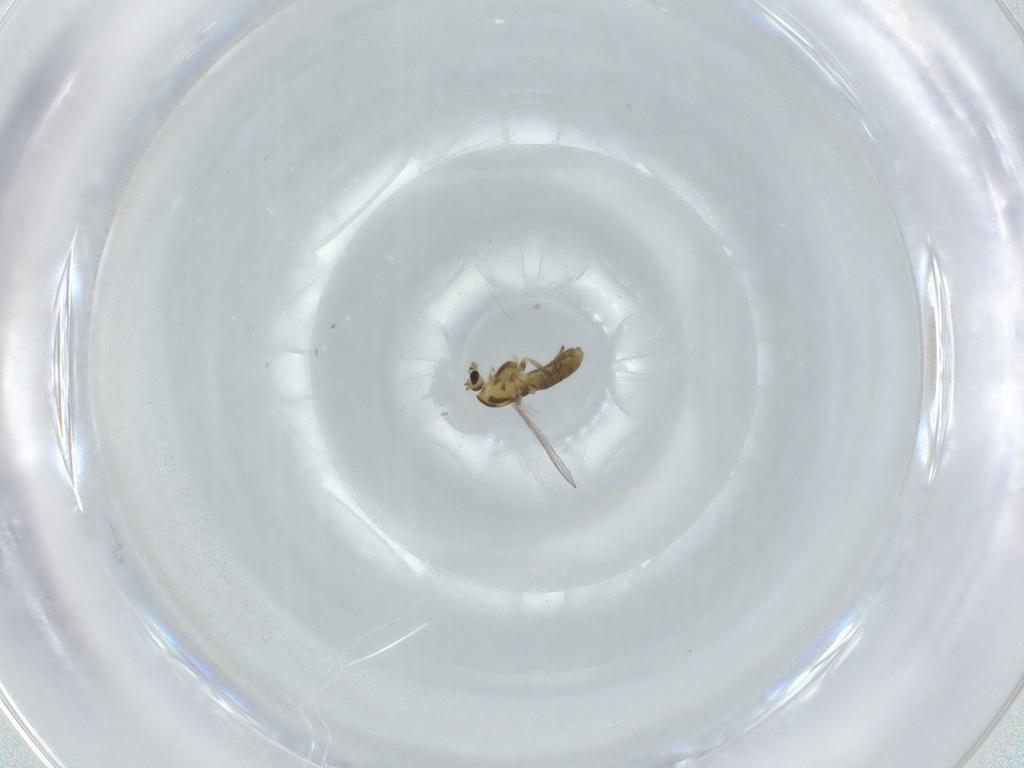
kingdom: Animalia
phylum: Arthropoda
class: Insecta
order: Diptera
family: Chironomidae
